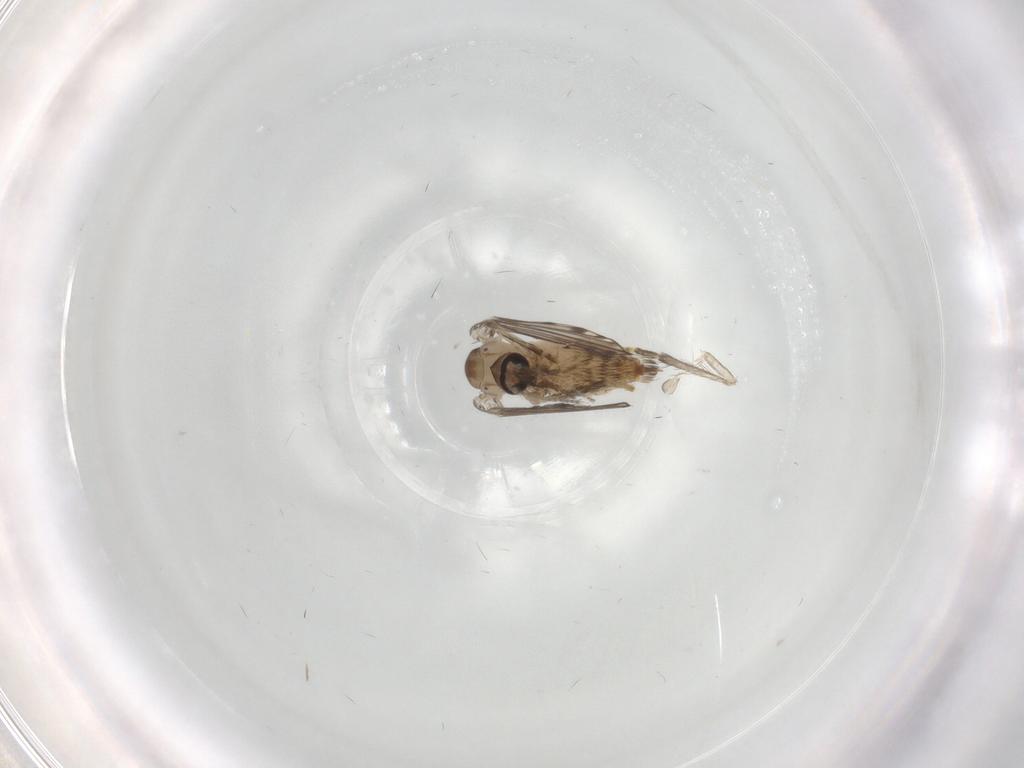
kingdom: Animalia
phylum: Arthropoda
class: Insecta
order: Diptera
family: Psychodidae
